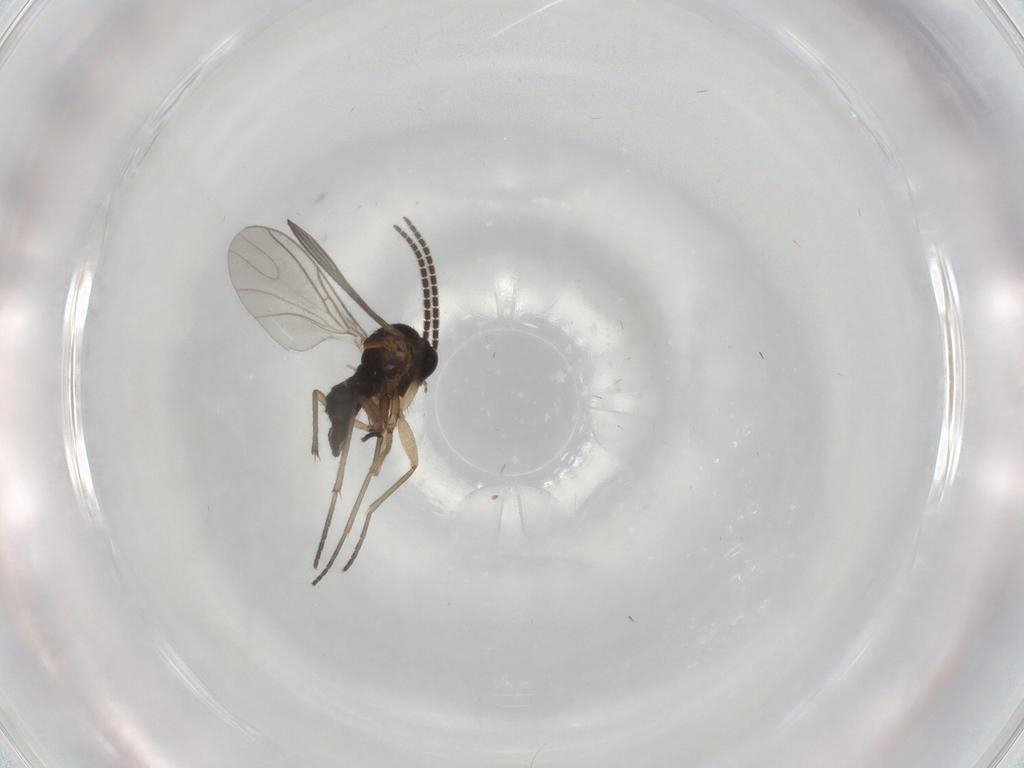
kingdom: Animalia
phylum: Arthropoda
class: Insecta
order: Diptera
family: Sciaridae
